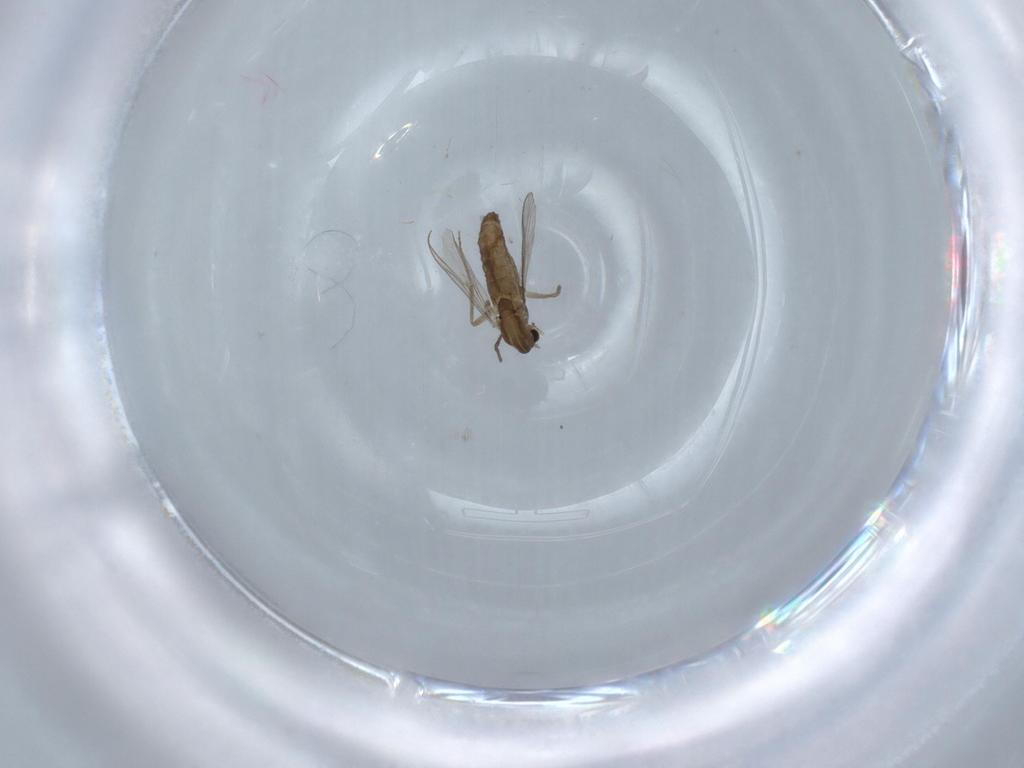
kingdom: Animalia
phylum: Arthropoda
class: Insecta
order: Diptera
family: Chironomidae
